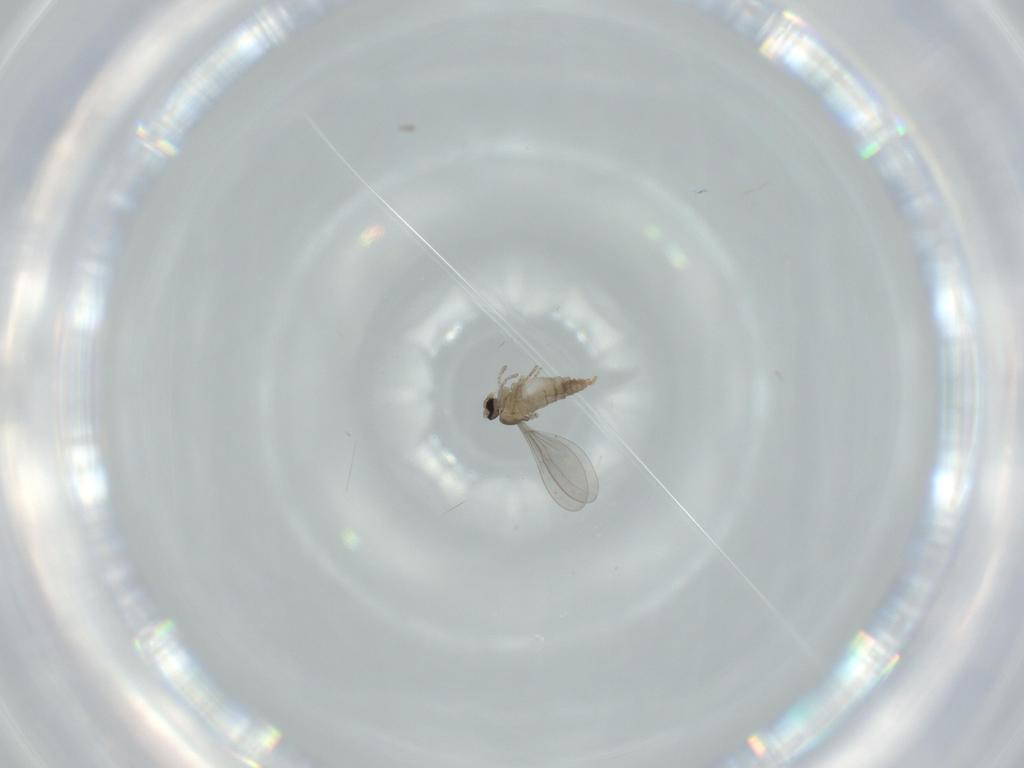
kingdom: Animalia
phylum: Arthropoda
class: Insecta
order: Diptera
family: Cecidomyiidae
